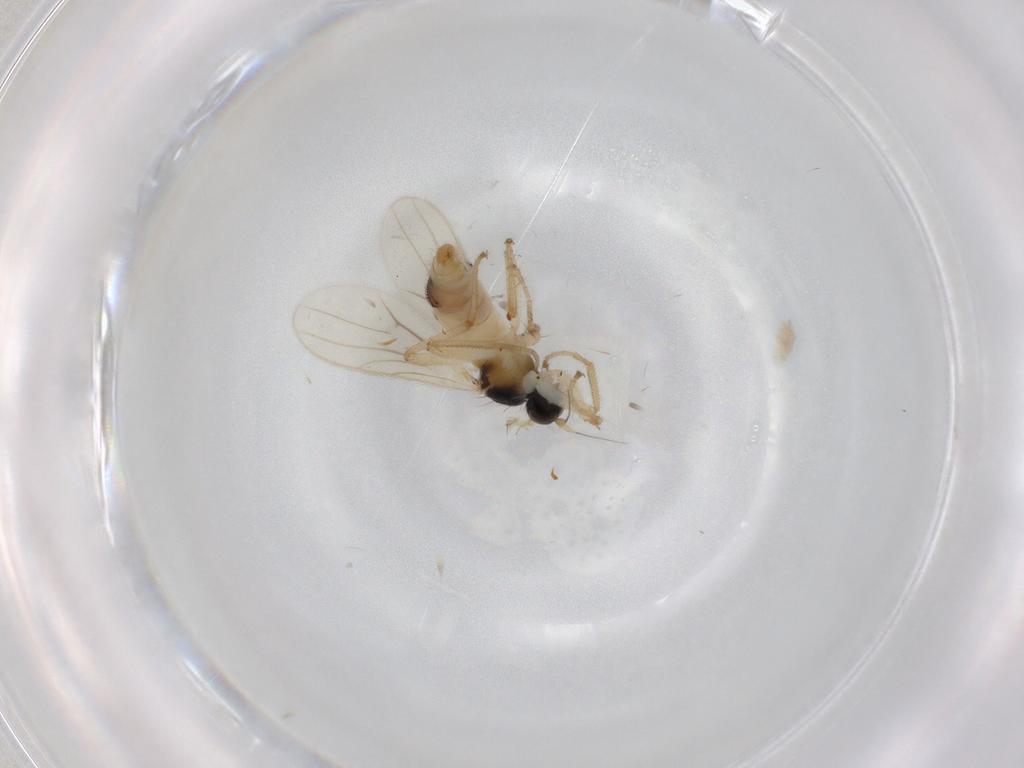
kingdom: Animalia
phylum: Arthropoda
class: Insecta
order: Diptera
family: Hybotidae
